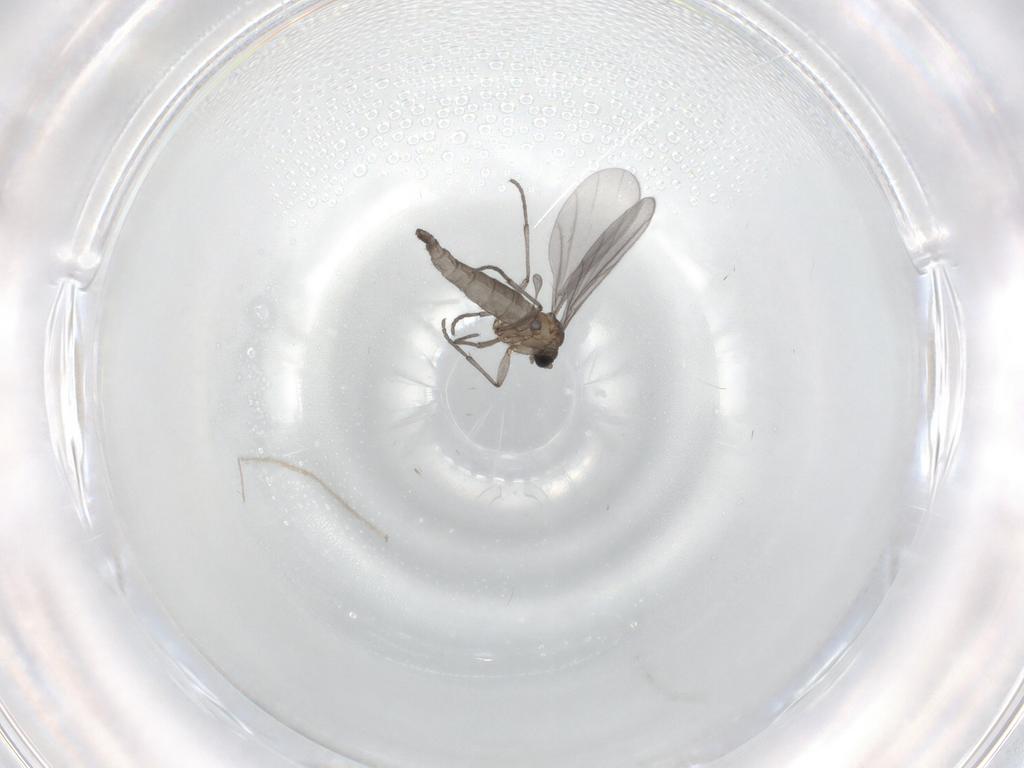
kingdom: Animalia
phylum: Arthropoda
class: Insecta
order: Diptera
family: Sciaridae
